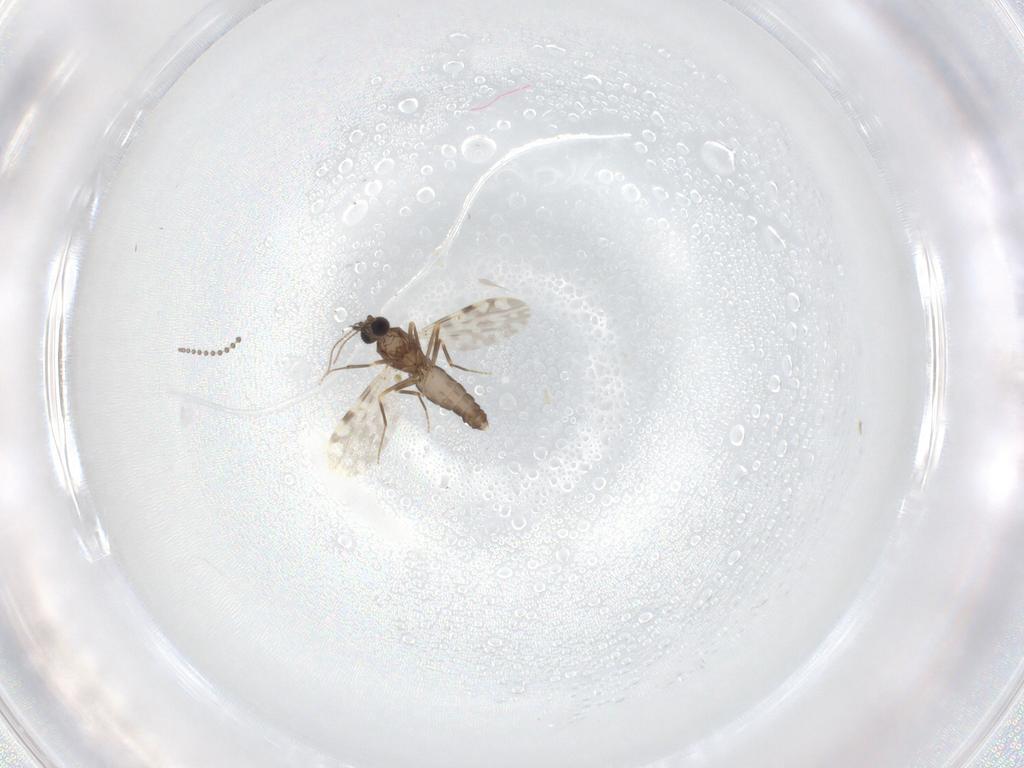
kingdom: Animalia
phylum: Arthropoda
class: Insecta
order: Diptera
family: Ceratopogonidae
